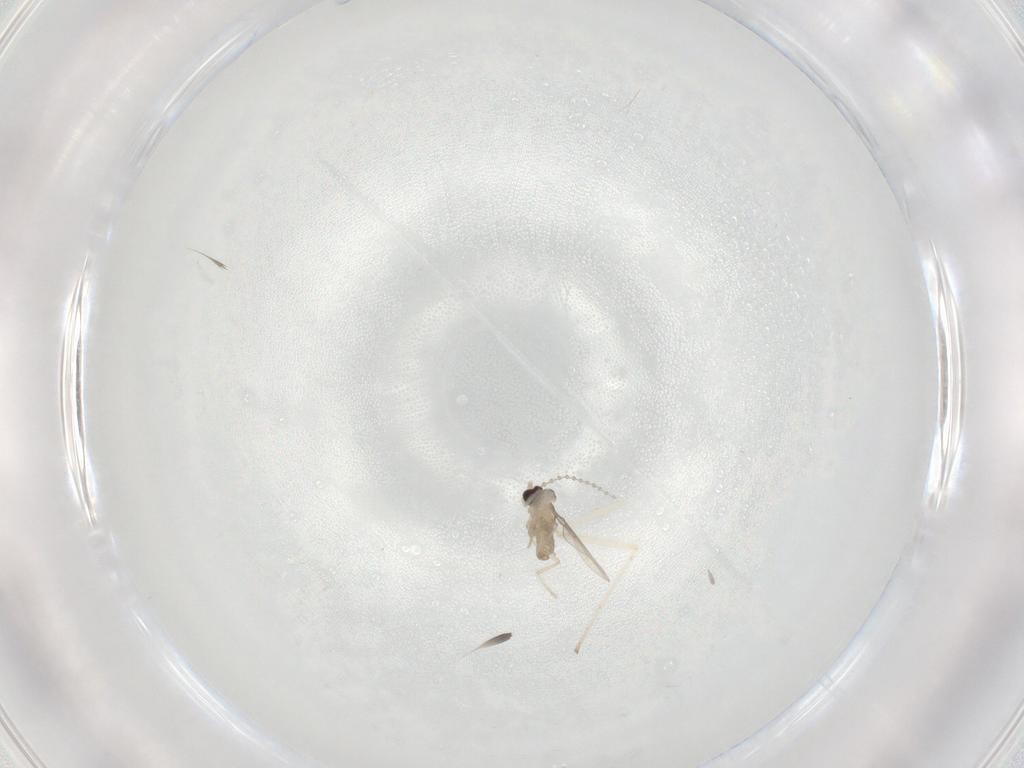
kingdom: Animalia
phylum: Arthropoda
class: Insecta
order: Diptera
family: Cecidomyiidae
